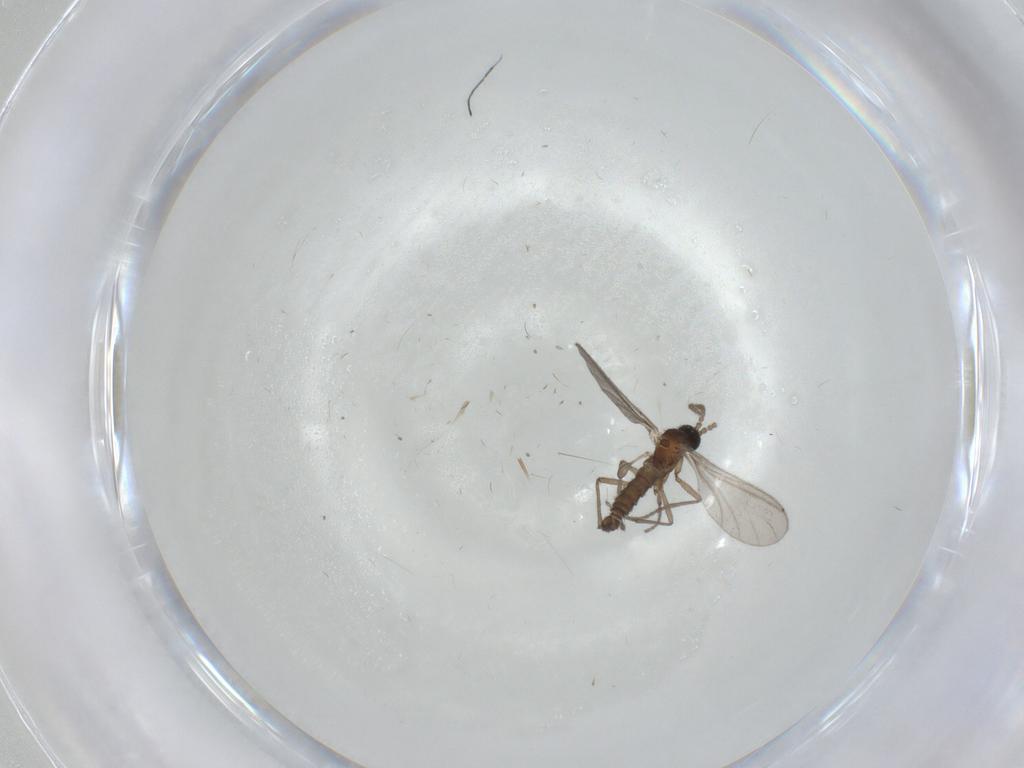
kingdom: Animalia
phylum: Arthropoda
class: Insecta
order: Diptera
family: Sciaridae
